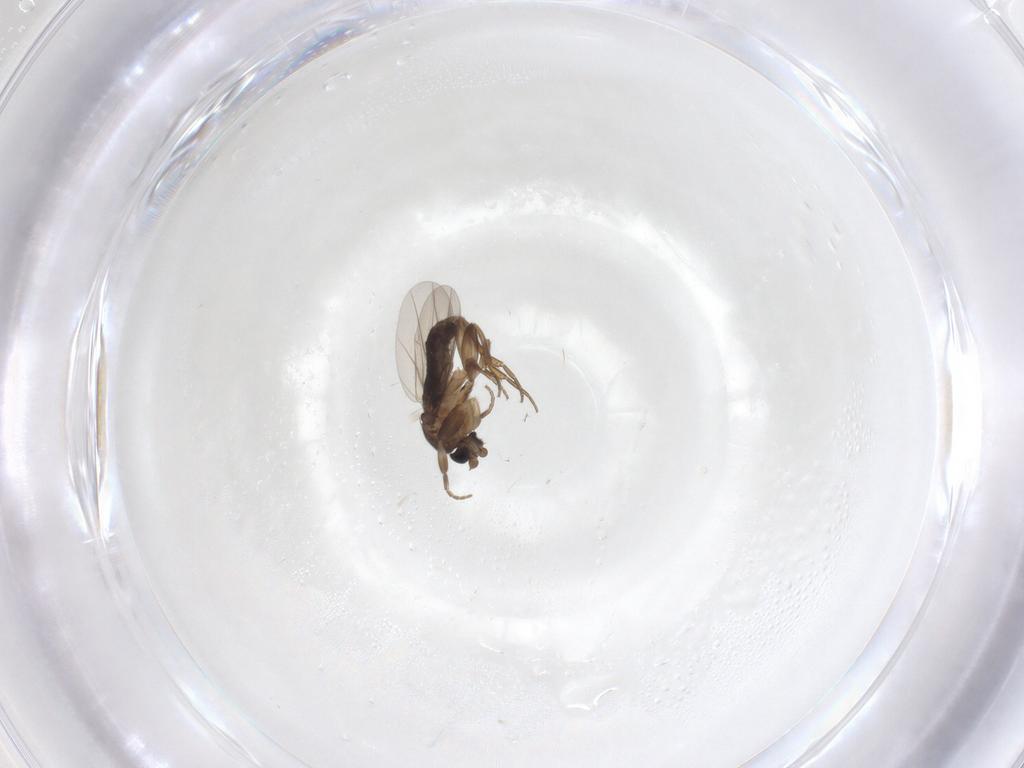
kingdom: Animalia
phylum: Arthropoda
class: Insecta
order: Diptera
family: Phoridae
